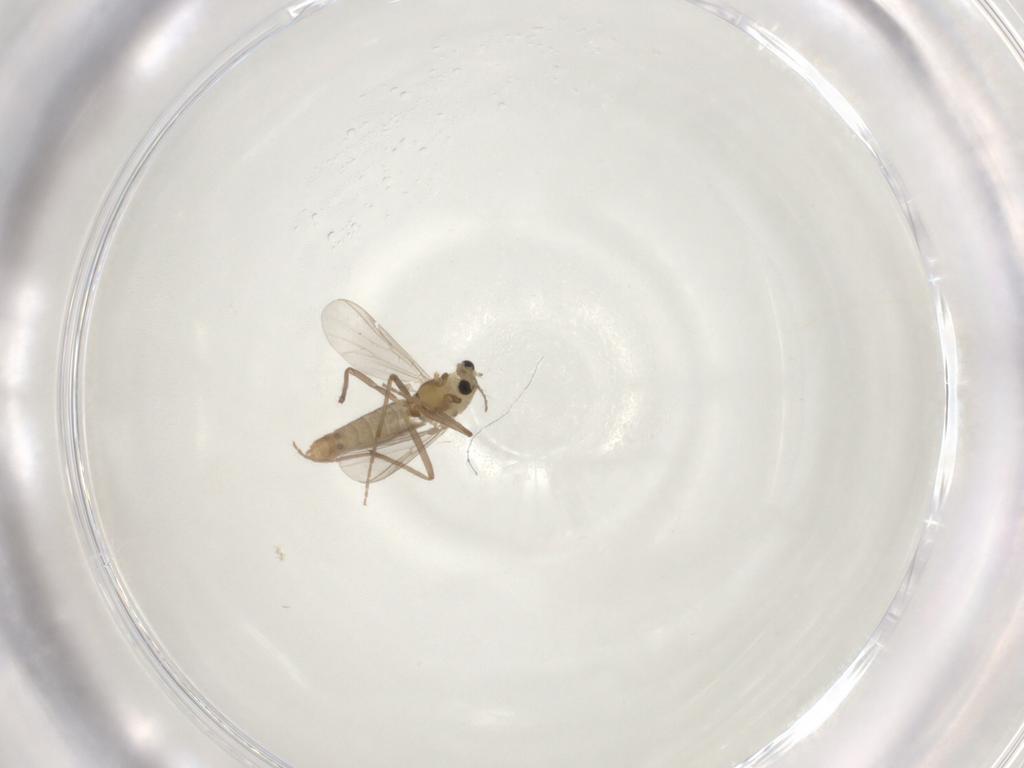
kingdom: Animalia
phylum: Arthropoda
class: Insecta
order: Diptera
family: Chironomidae
